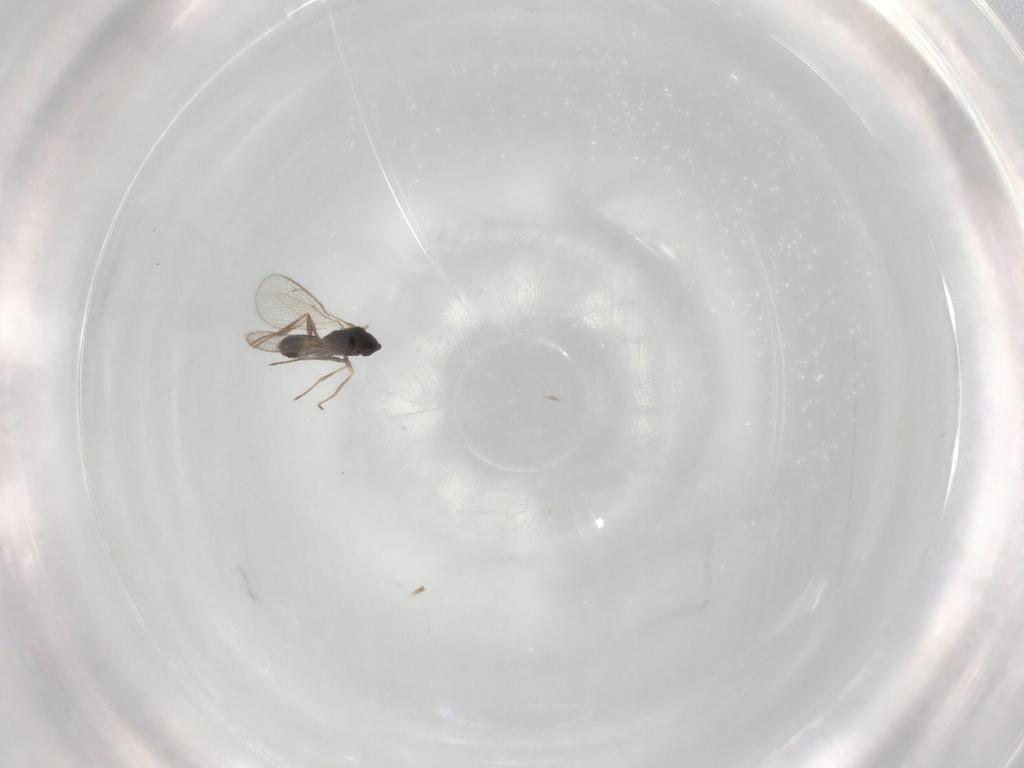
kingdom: Animalia
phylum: Arthropoda
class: Insecta
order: Hymenoptera
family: Eulophidae
